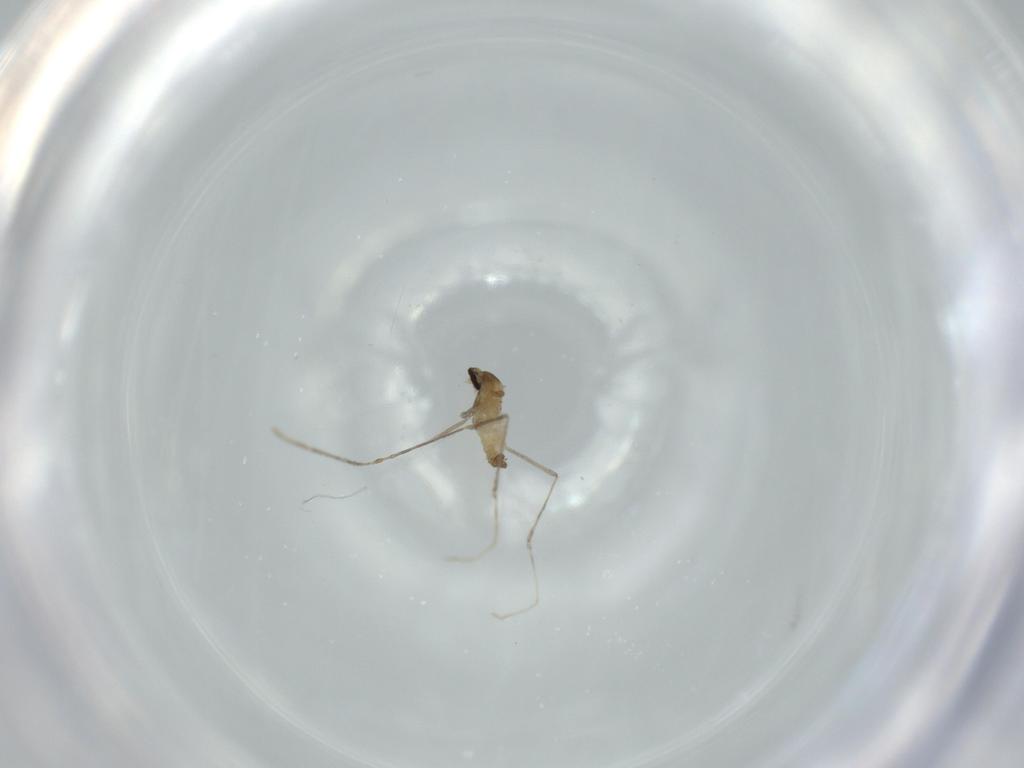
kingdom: Animalia
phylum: Arthropoda
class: Insecta
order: Diptera
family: Cecidomyiidae
